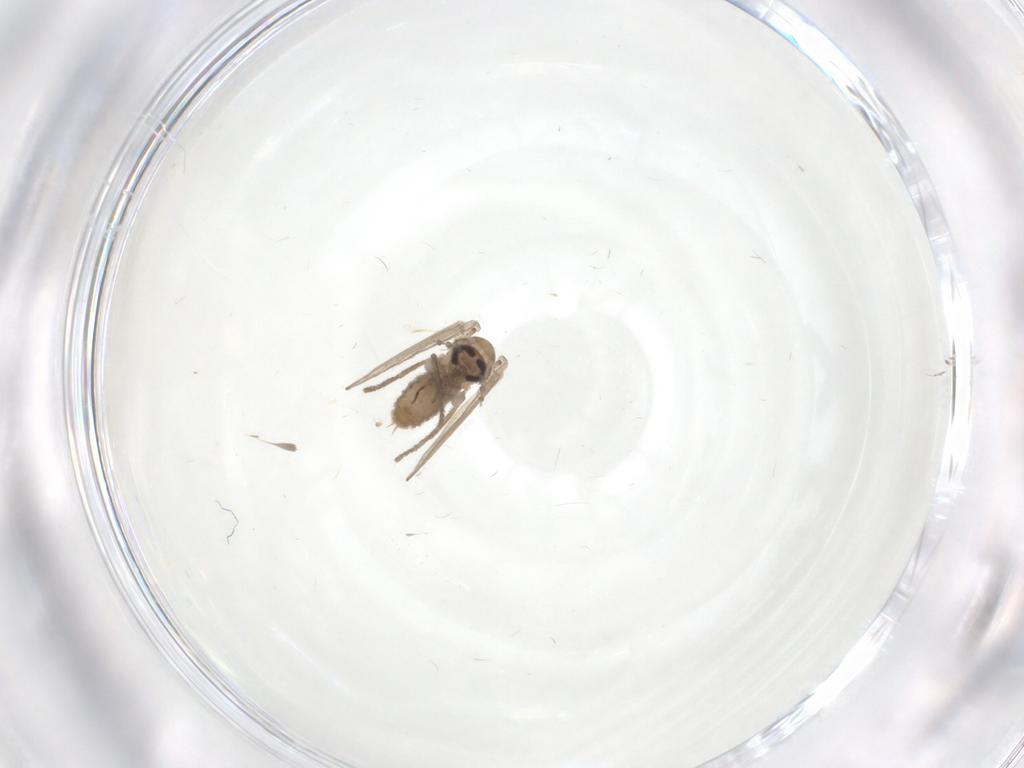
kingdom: Animalia
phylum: Arthropoda
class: Insecta
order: Diptera
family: Psychodidae
